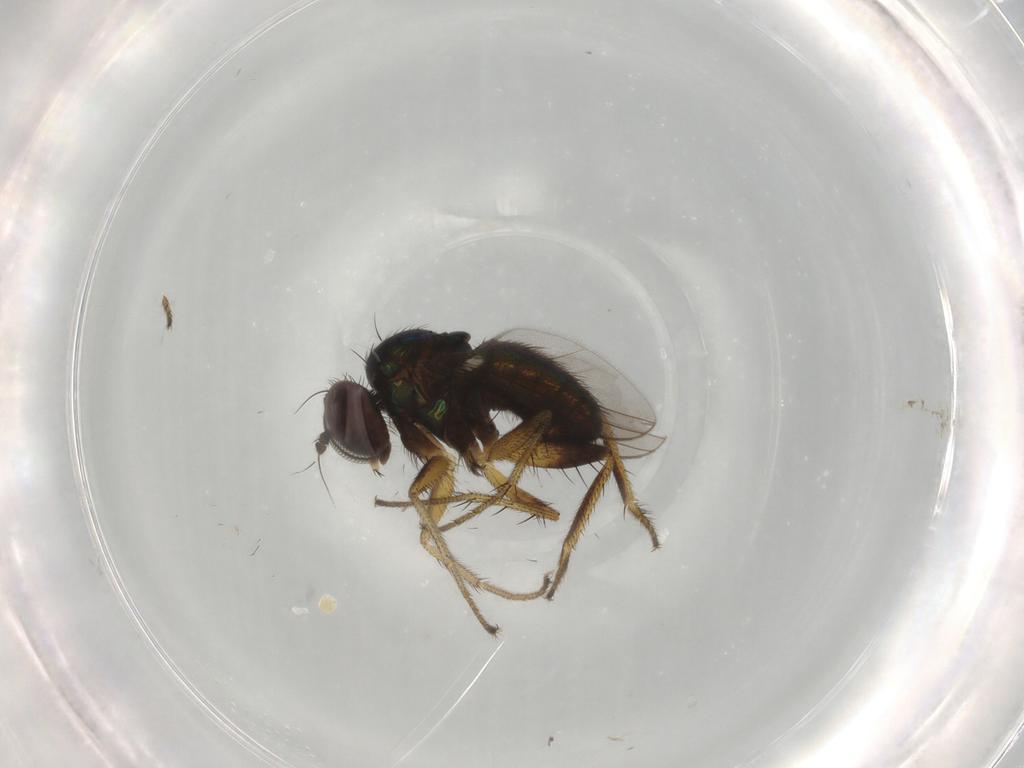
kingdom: Animalia
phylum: Arthropoda
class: Insecta
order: Diptera
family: Dolichopodidae
